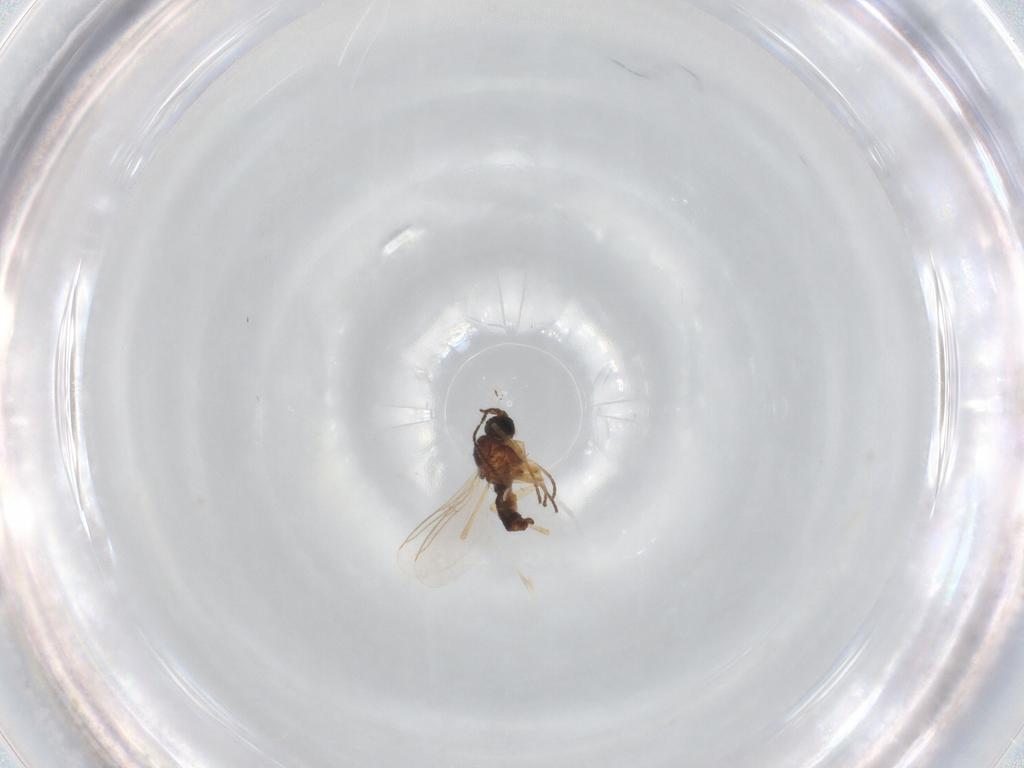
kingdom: Animalia
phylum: Arthropoda
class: Insecta
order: Diptera
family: Sciaridae
